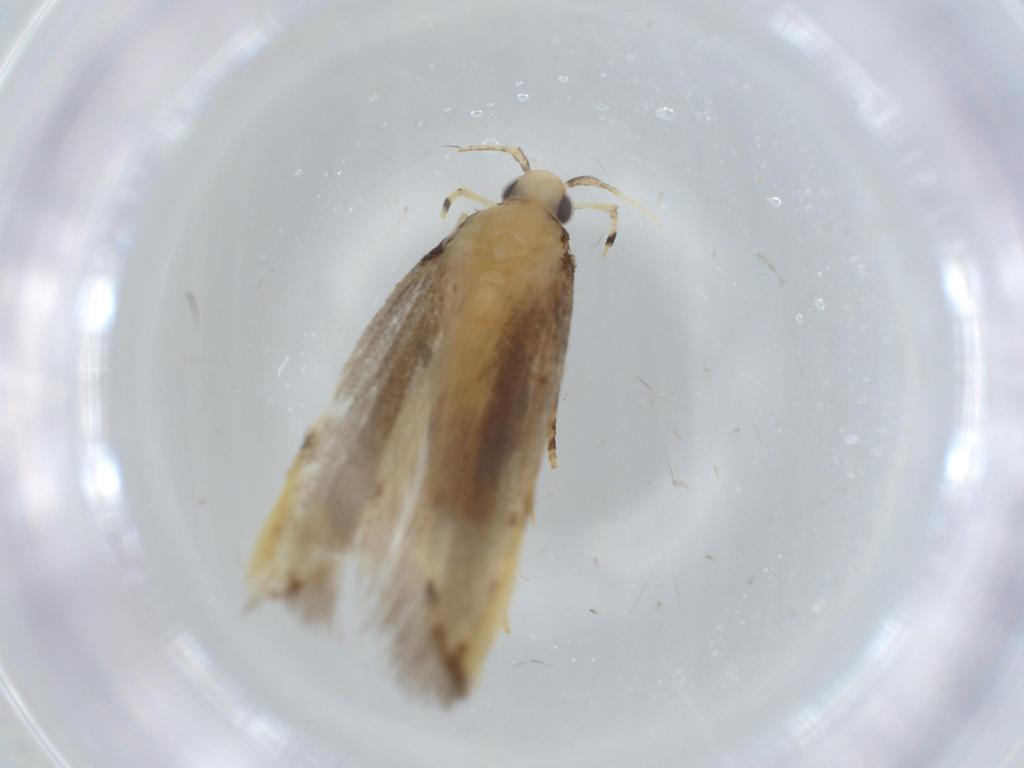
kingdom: Animalia
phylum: Arthropoda
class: Insecta
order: Lepidoptera
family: Autostichidae
